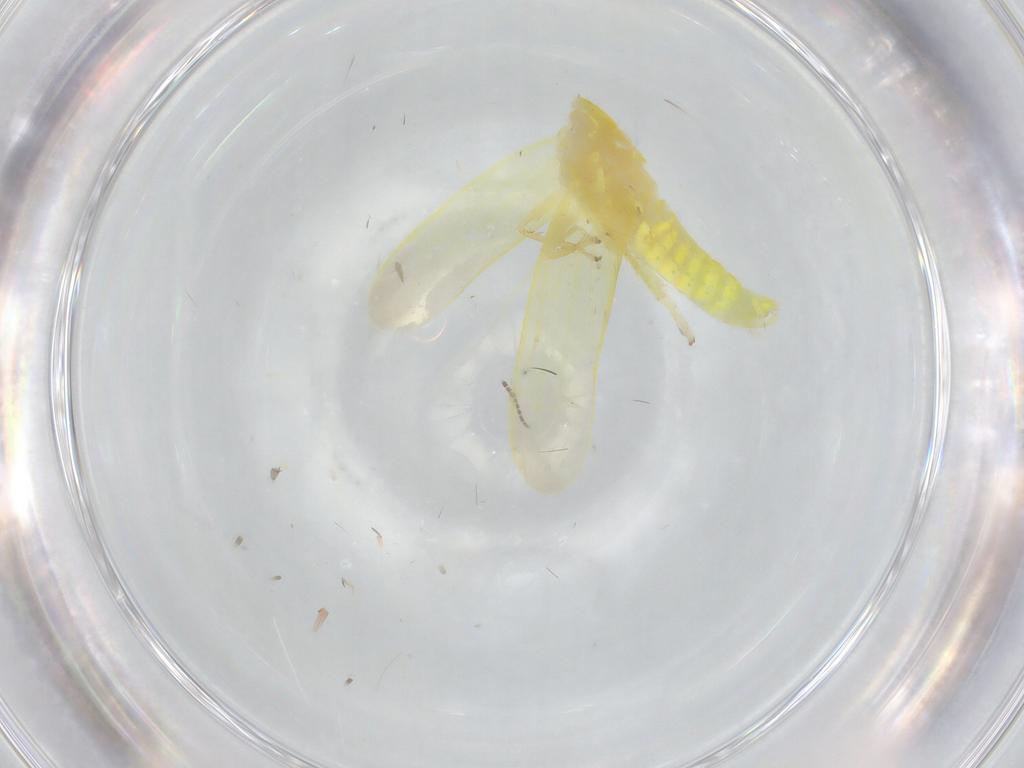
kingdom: Animalia
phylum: Arthropoda
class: Insecta
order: Hemiptera
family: Cicadellidae
